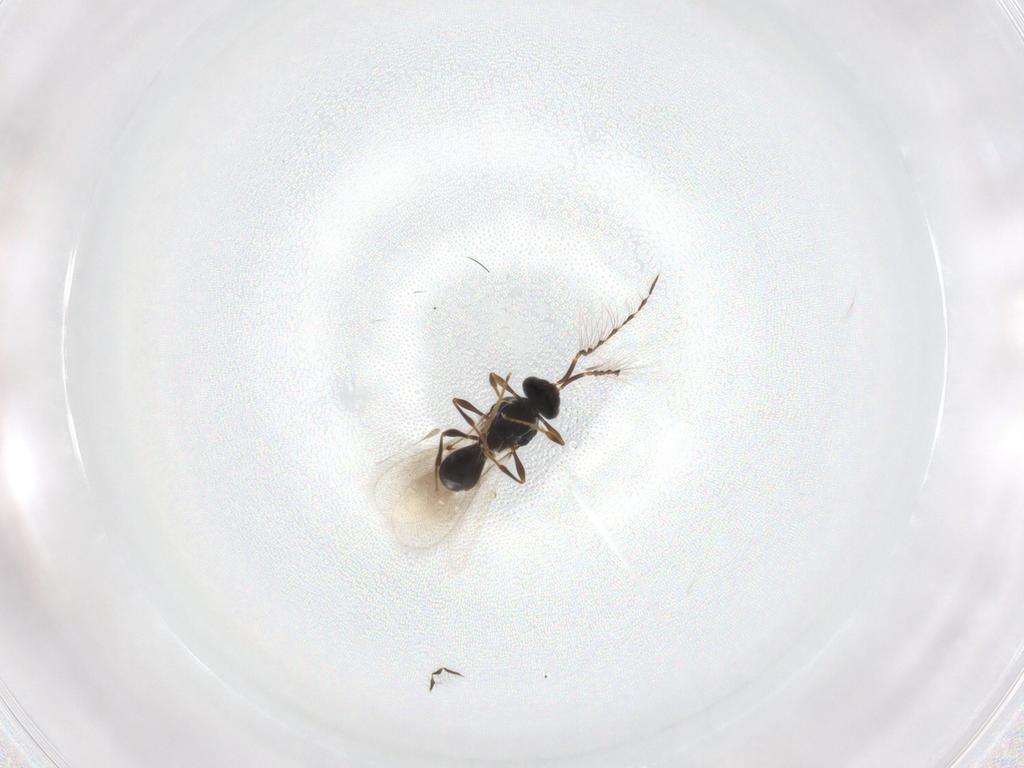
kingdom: Animalia
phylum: Arthropoda
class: Insecta
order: Hymenoptera
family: Platygastridae
